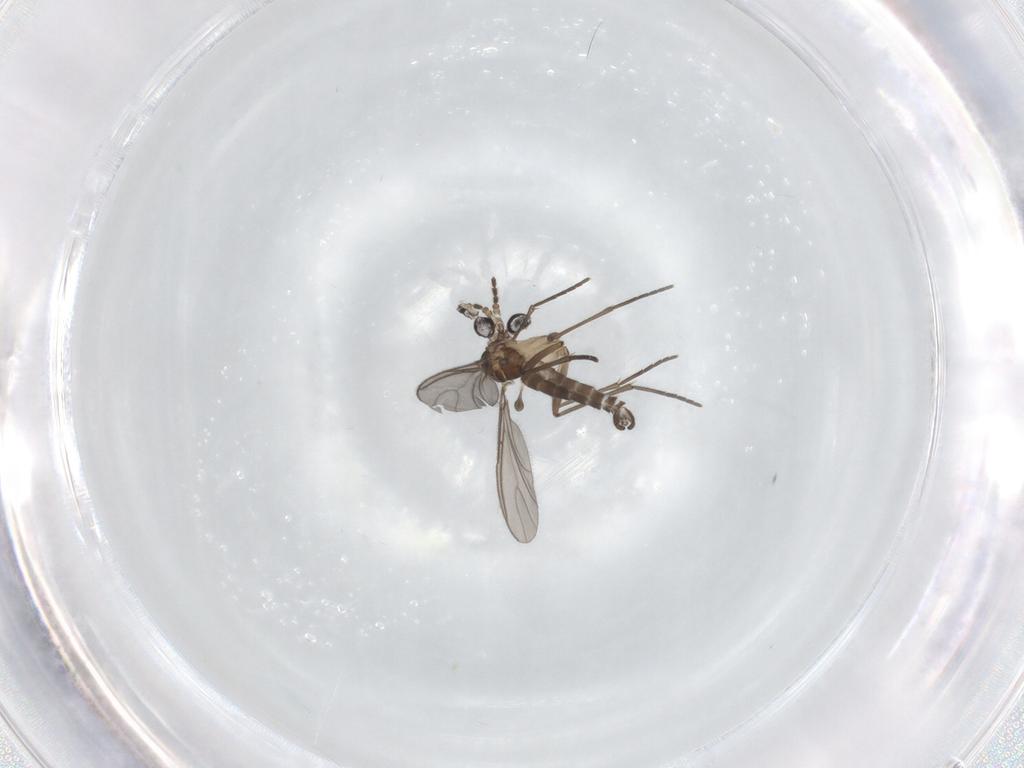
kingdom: Animalia
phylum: Arthropoda
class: Insecta
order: Diptera
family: Sciaridae
